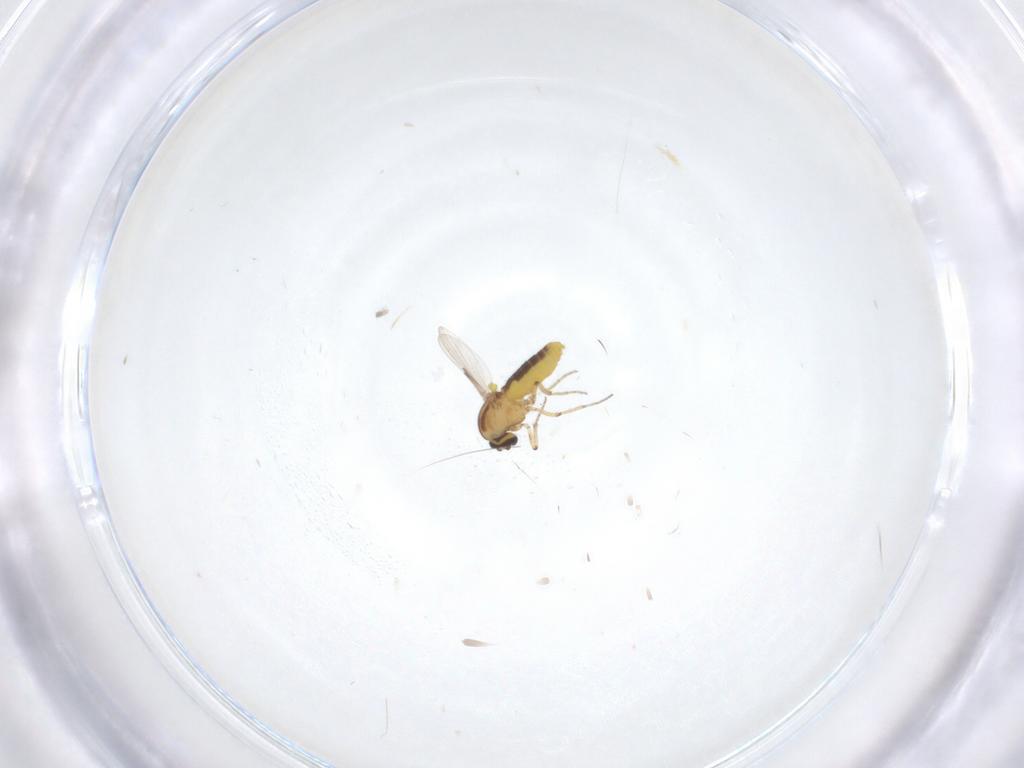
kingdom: Animalia
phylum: Arthropoda
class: Insecta
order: Diptera
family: Ceratopogonidae
